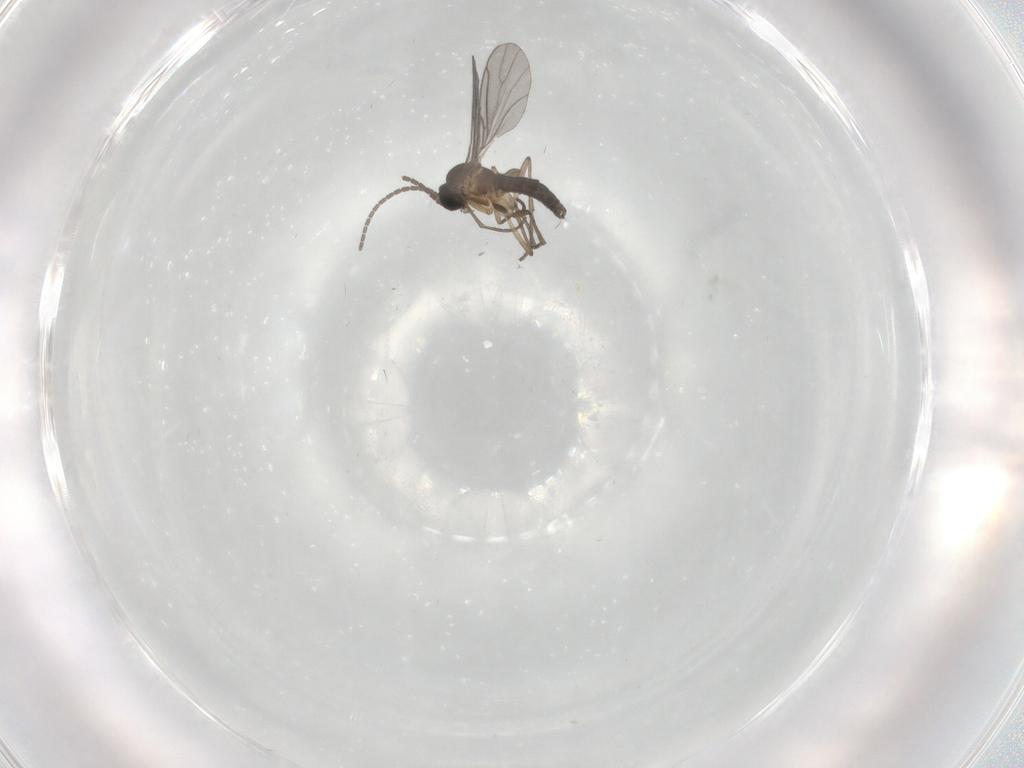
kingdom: Animalia
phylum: Arthropoda
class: Insecta
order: Diptera
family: Sciaridae
